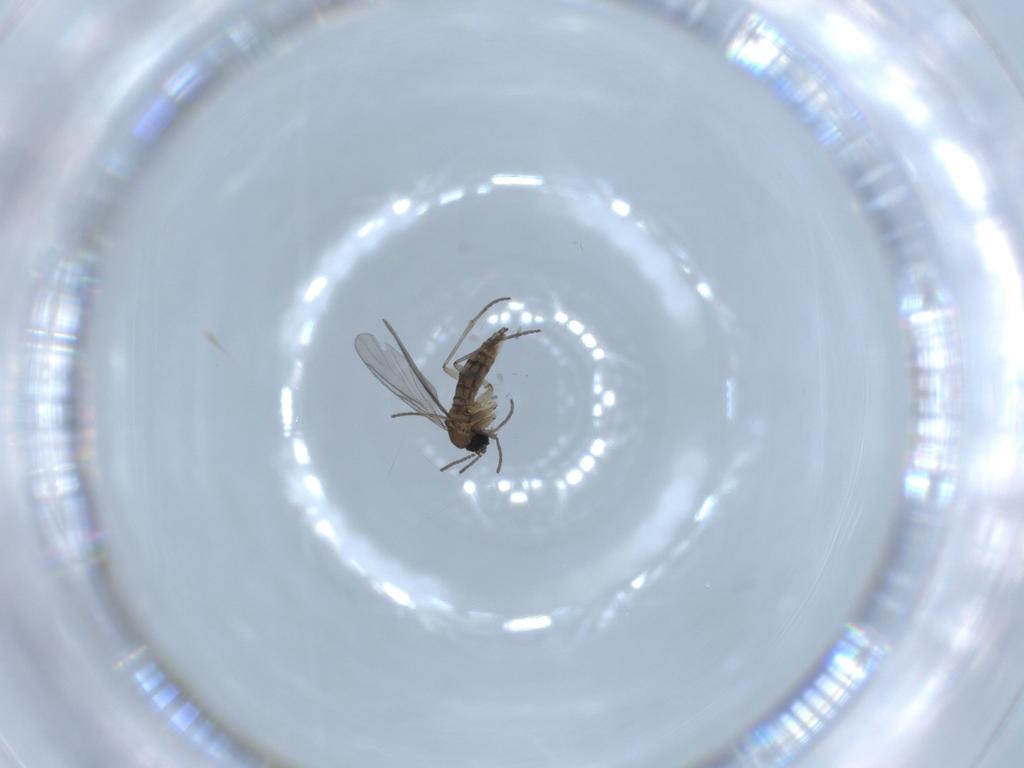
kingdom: Animalia
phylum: Arthropoda
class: Insecta
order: Diptera
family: Sciaridae
